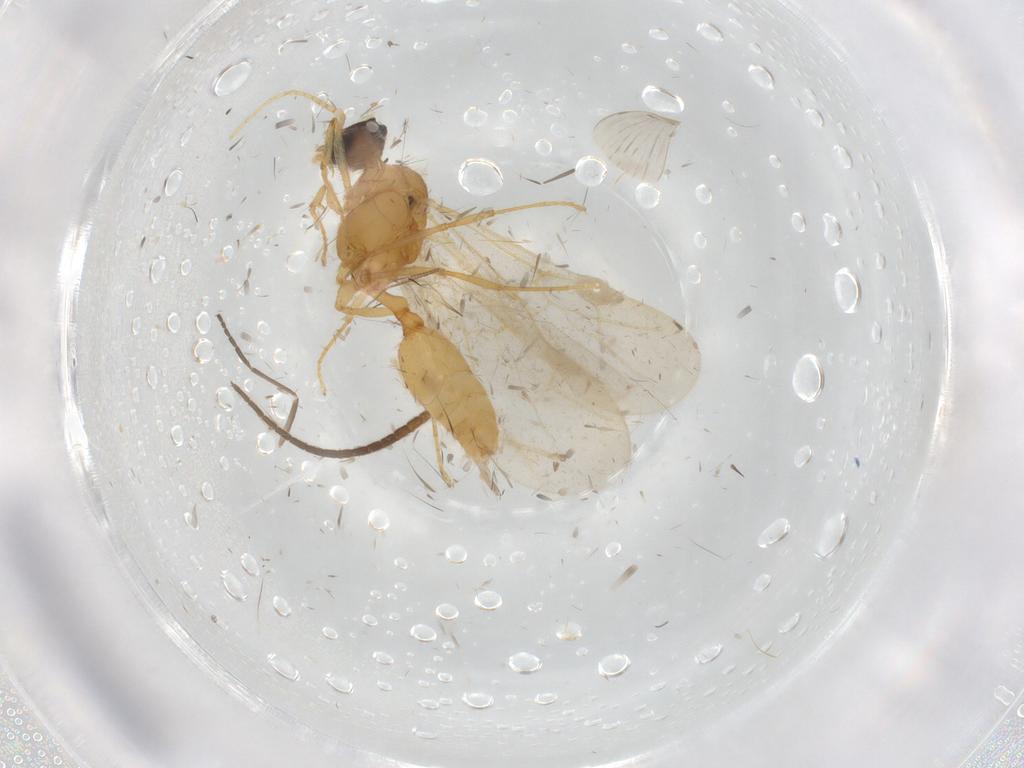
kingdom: Animalia
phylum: Arthropoda
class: Insecta
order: Hymenoptera
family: Formicidae
